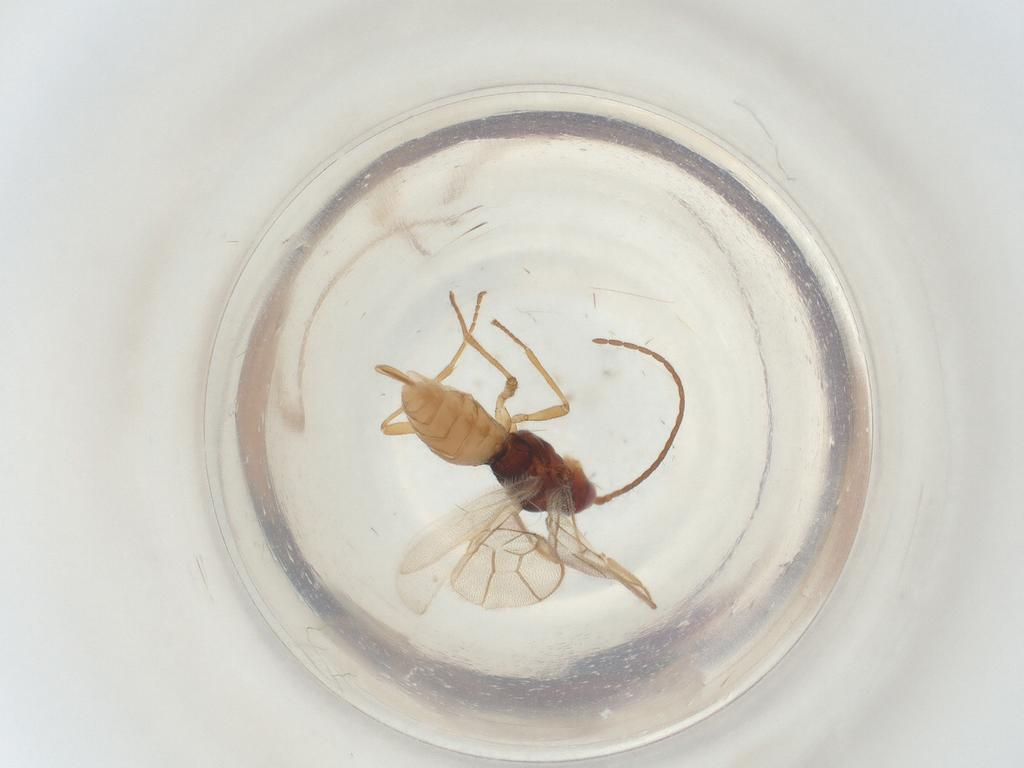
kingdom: Animalia
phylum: Arthropoda
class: Insecta
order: Hymenoptera
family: Braconidae
